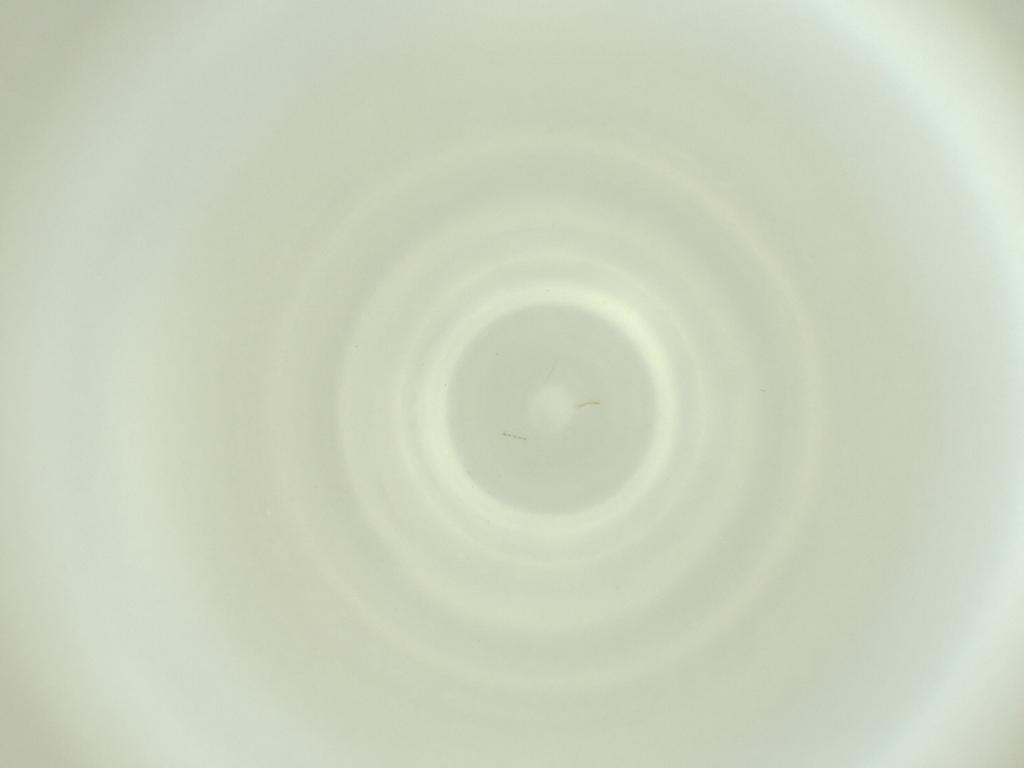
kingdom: Animalia
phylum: Arthropoda
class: Insecta
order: Diptera
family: Cecidomyiidae
